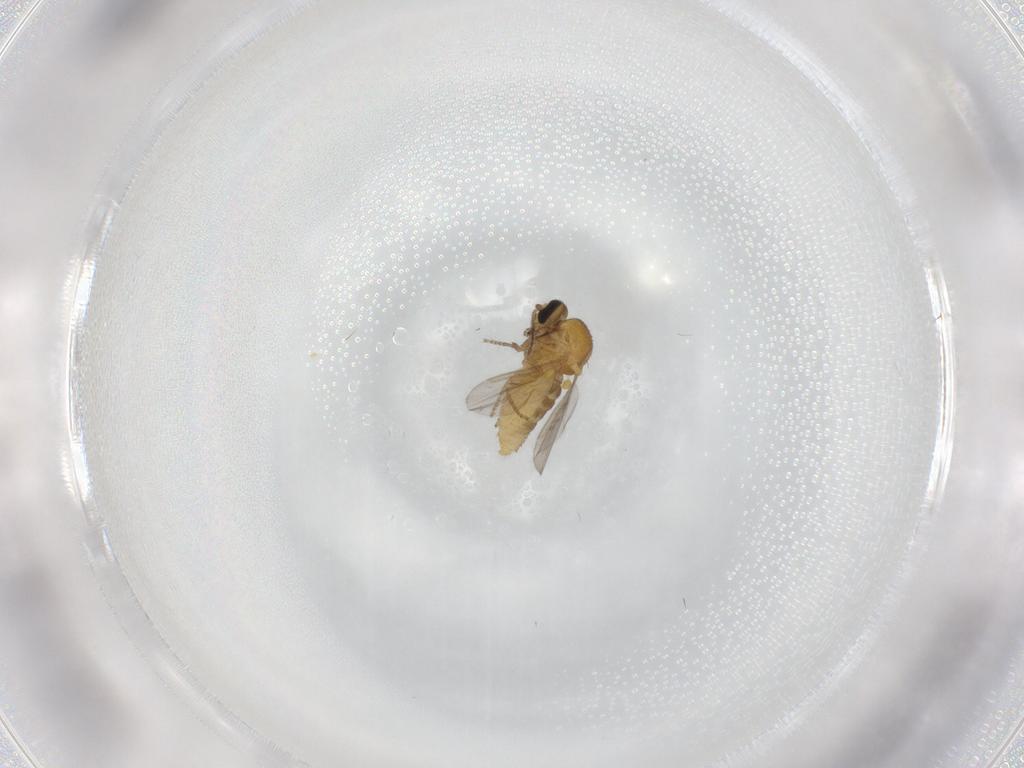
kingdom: Animalia
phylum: Arthropoda
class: Insecta
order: Diptera
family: Ceratopogonidae
